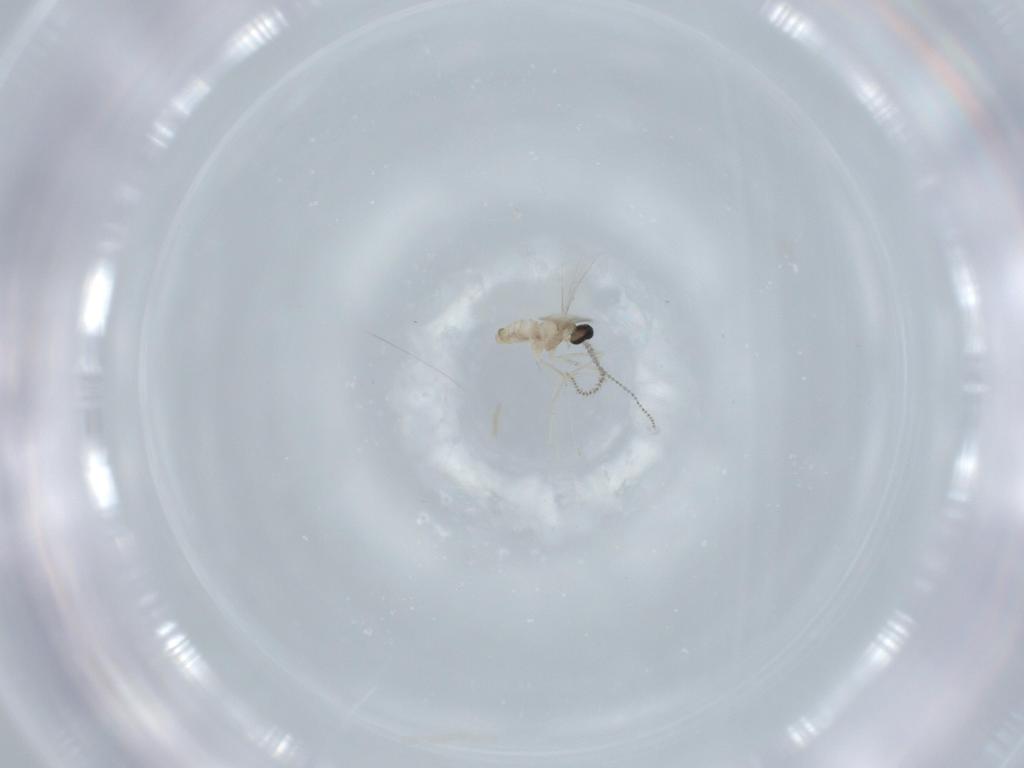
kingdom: Animalia
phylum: Arthropoda
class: Insecta
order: Diptera
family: Cecidomyiidae
